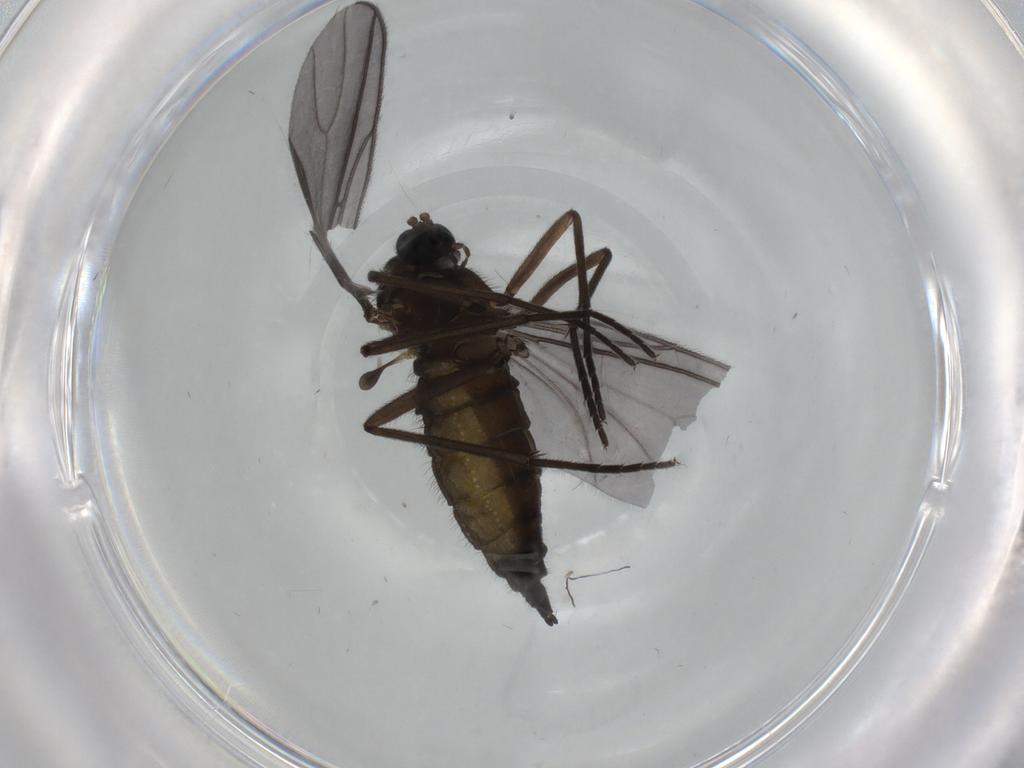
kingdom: Animalia
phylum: Arthropoda
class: Insecta
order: Diptera
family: Sciaridae
